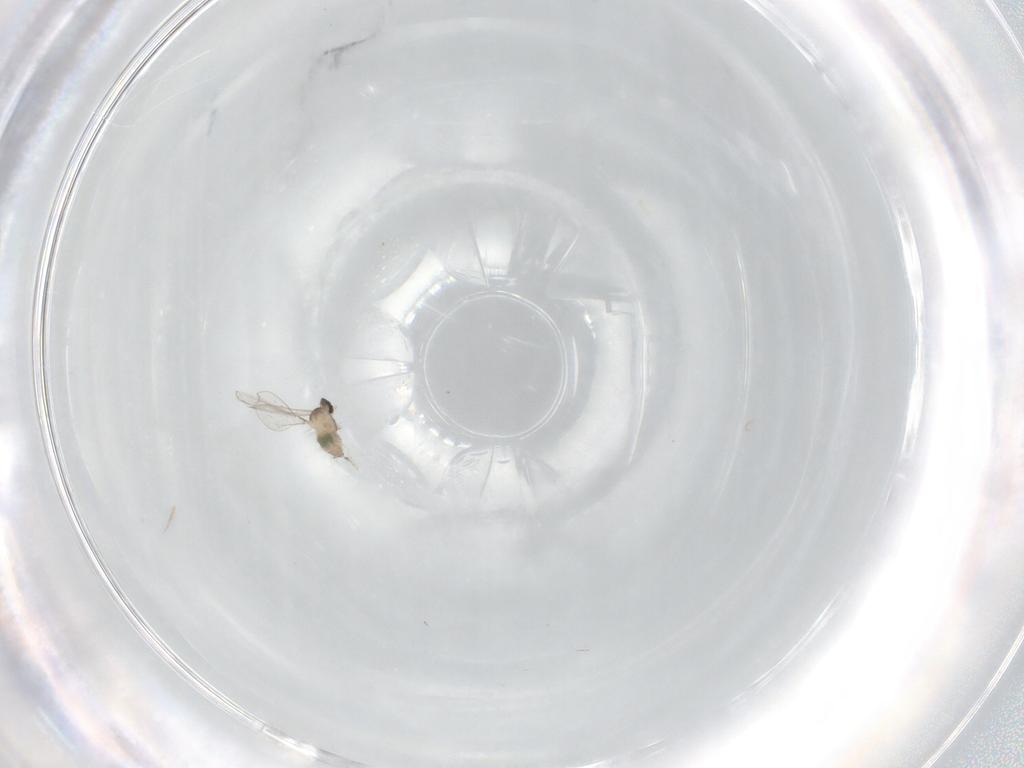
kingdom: Animalia
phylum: Arthropoda
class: Insecta
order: Diptera
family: Cecidomyiidae
